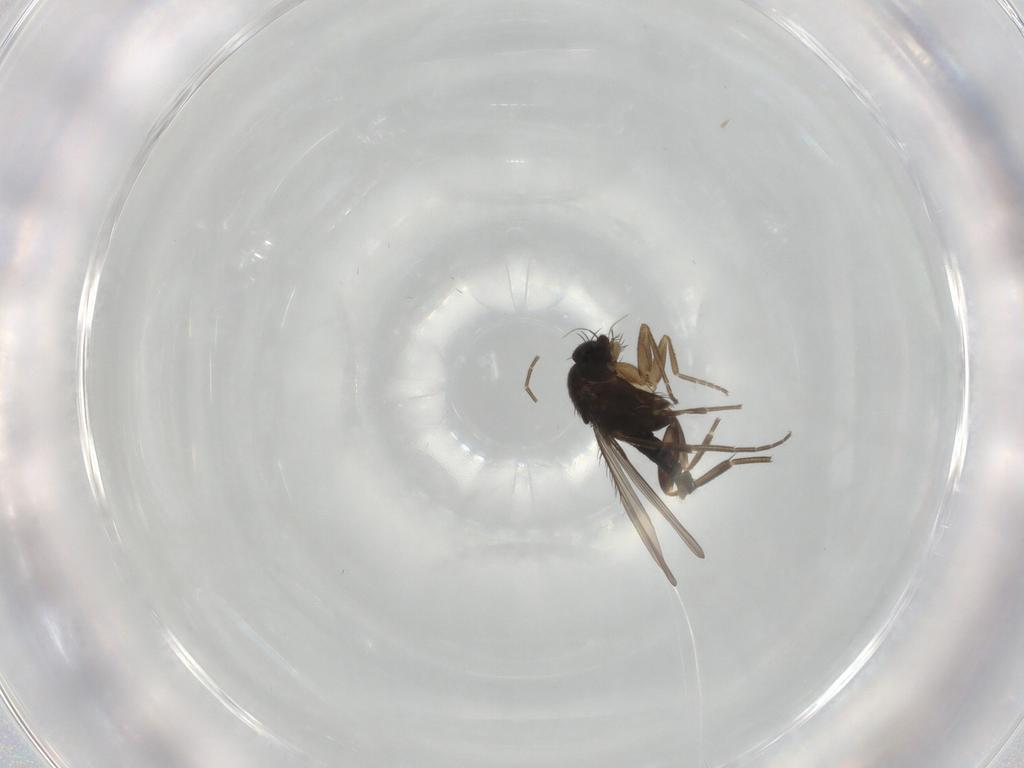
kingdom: Animalia
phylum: Arthropoda
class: Insecta
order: Diptera
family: Phoridae
